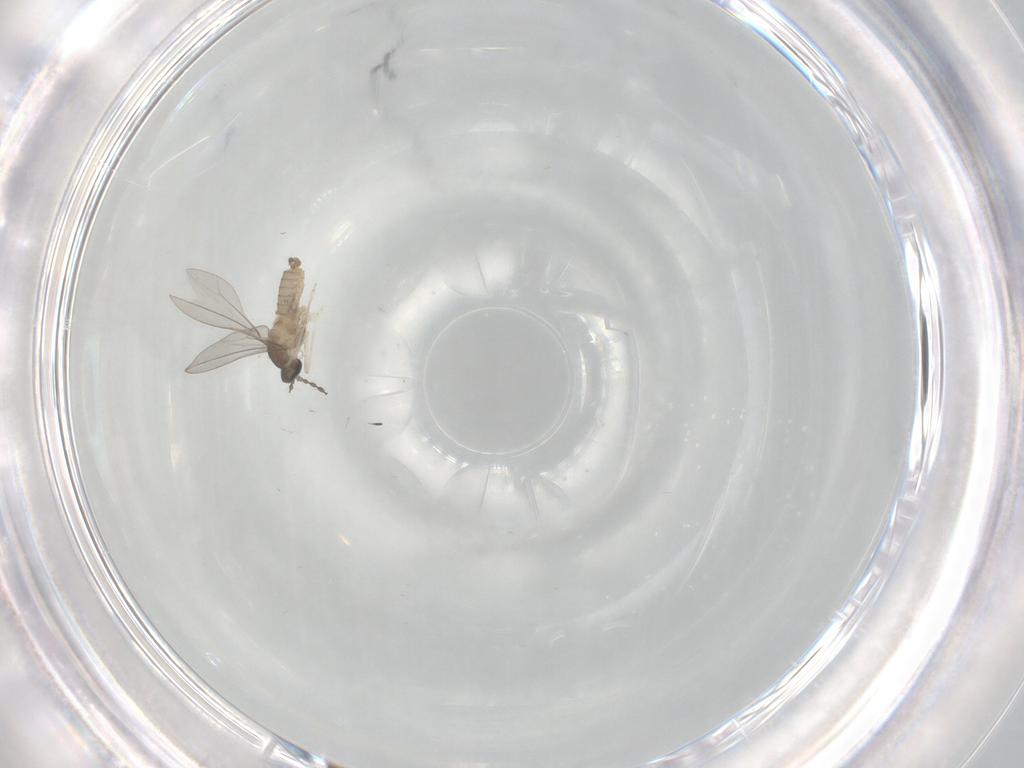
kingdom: Animalia
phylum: Arthropoda
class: Insecta
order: Diptera
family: Cecidomyiidae
